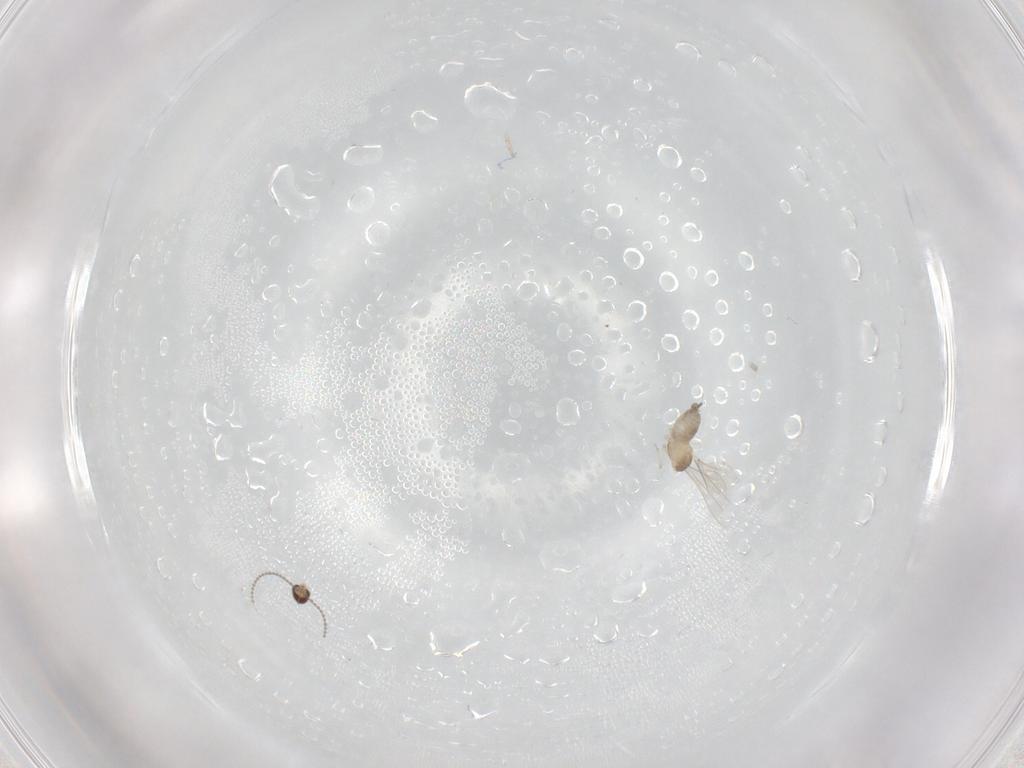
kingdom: Animalia
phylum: Arthropoda
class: Insecta
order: Diptera
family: Cecidomyiidae
